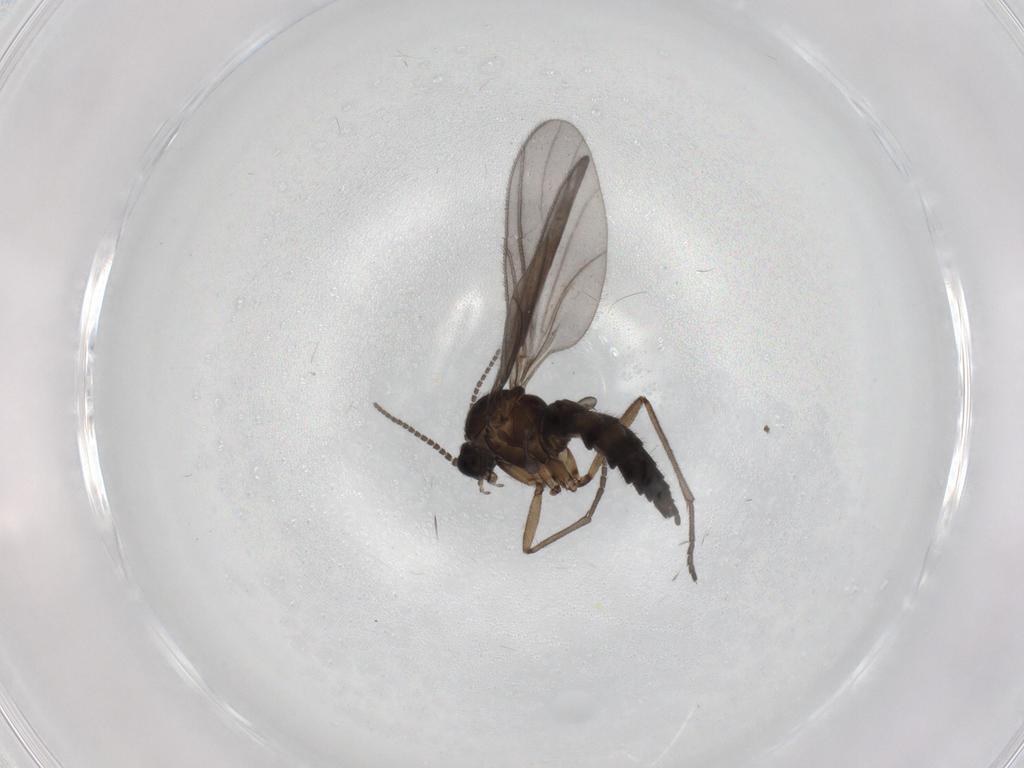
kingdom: Animalia
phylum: Arthropoda
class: Insecta
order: Diptera
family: Sciaridae
